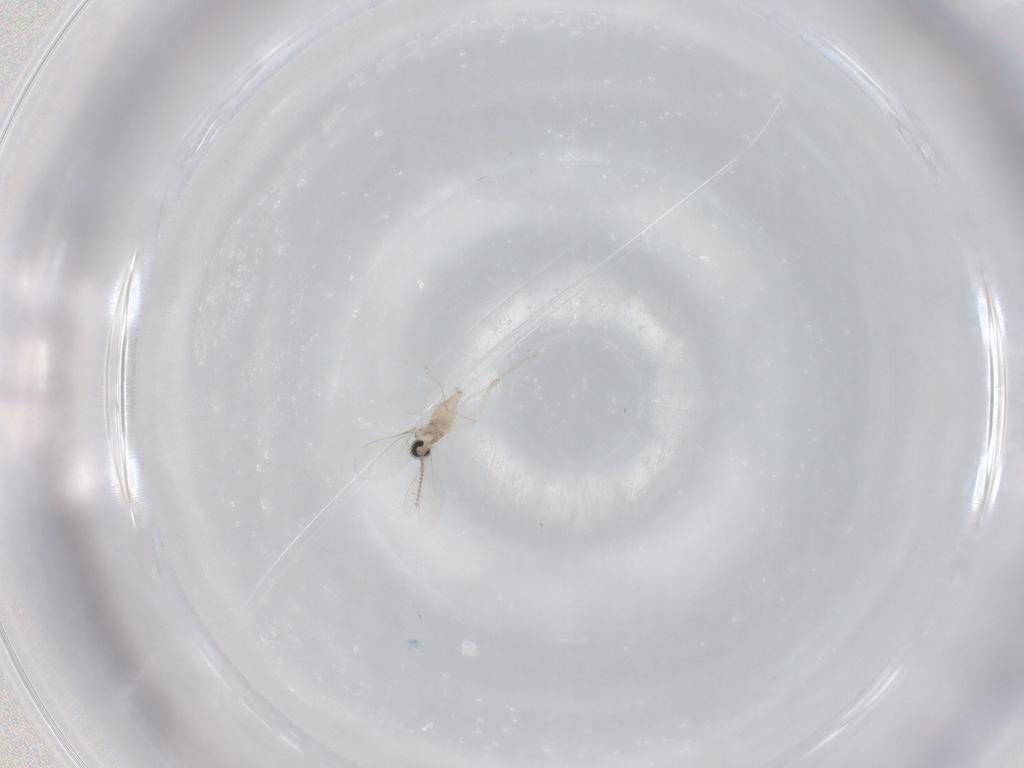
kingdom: Animalia
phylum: Arthropoda
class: Insecta
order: Diptera
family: Cecidomyiidae
